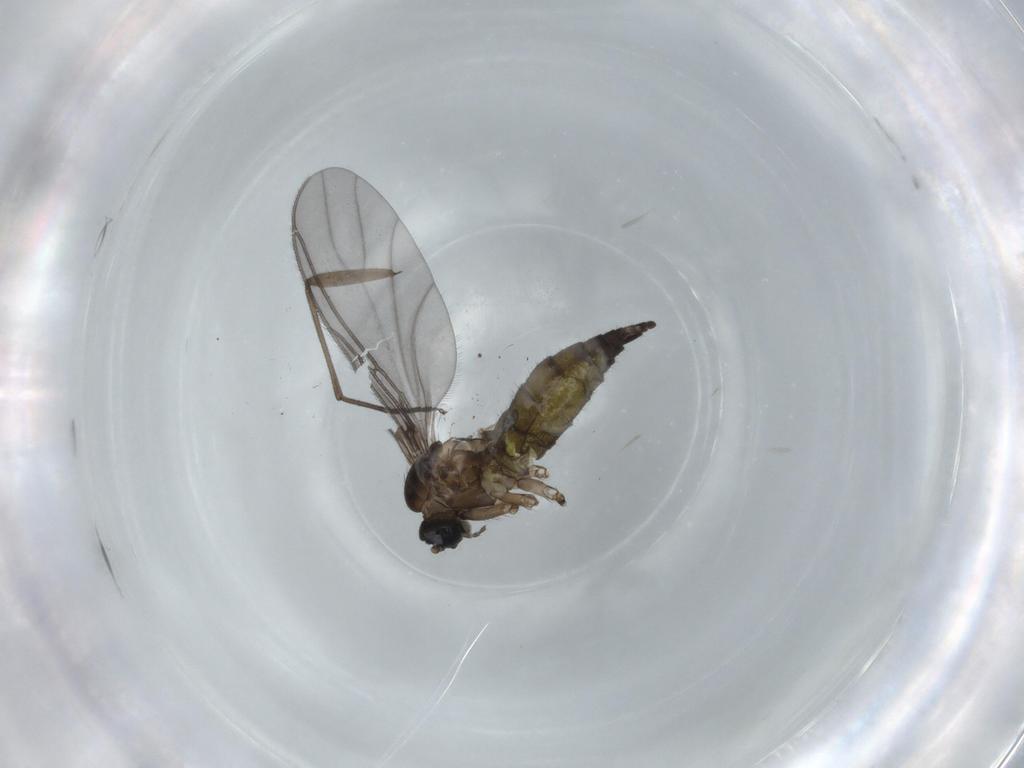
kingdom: Animalia
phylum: Arthropoda
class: Insecta
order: Diptera
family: Sciaridae
